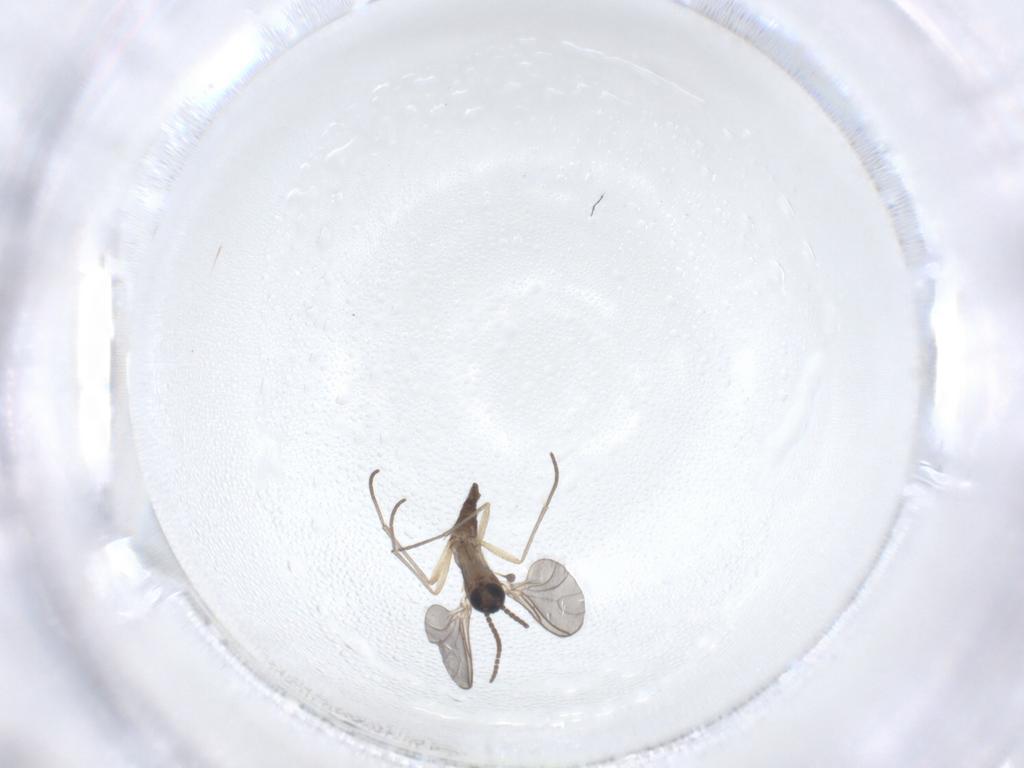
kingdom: Animalia
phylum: Arthropoda
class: Insecta
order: Diptera
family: Sciaridae
